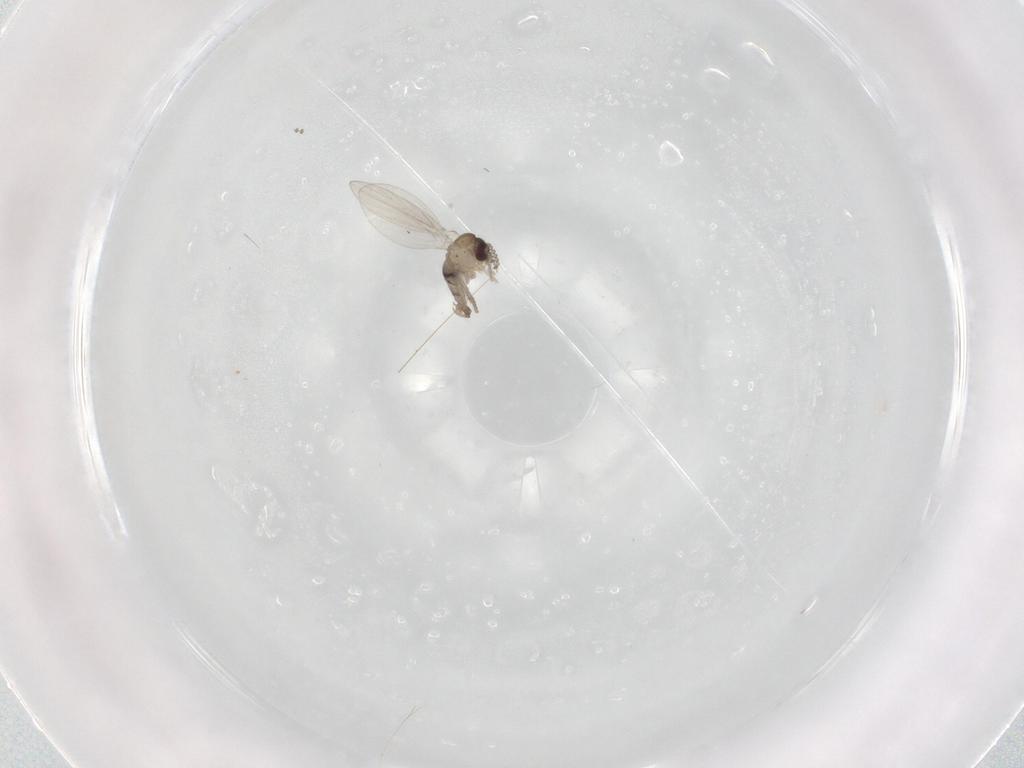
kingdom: Animalia
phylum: Arthropoda
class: Insecta
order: Diptera
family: Psychodidae
